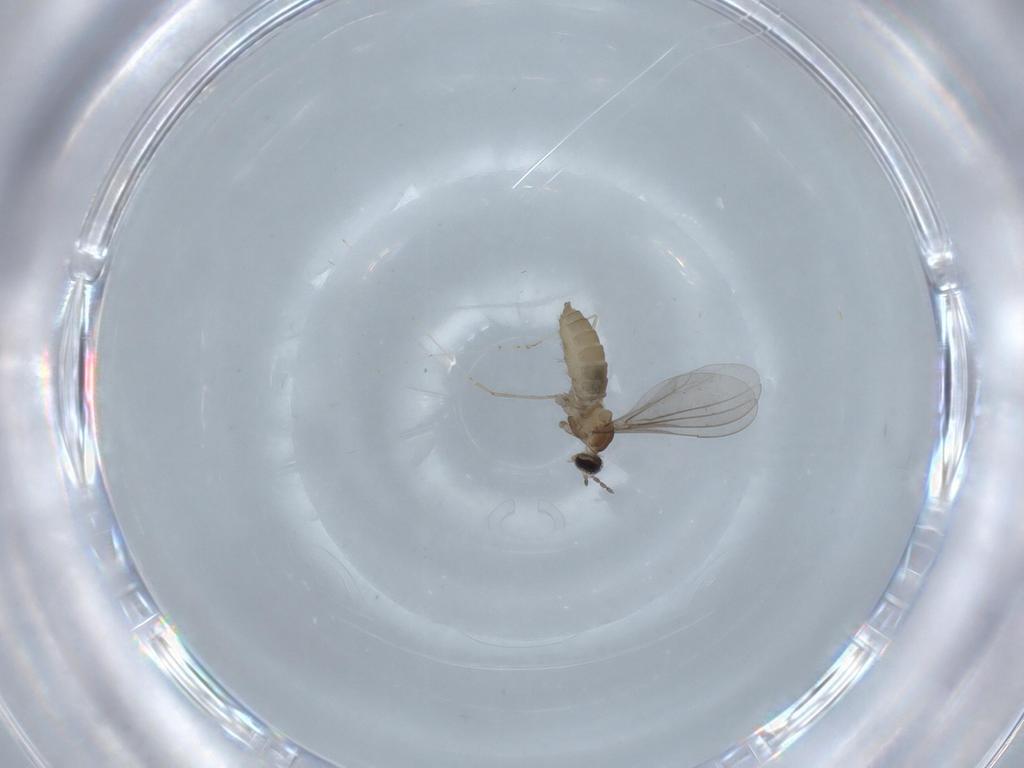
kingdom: Animalia
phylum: Arthropoda
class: Insecta
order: Diptera
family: Cecidomyiidae
